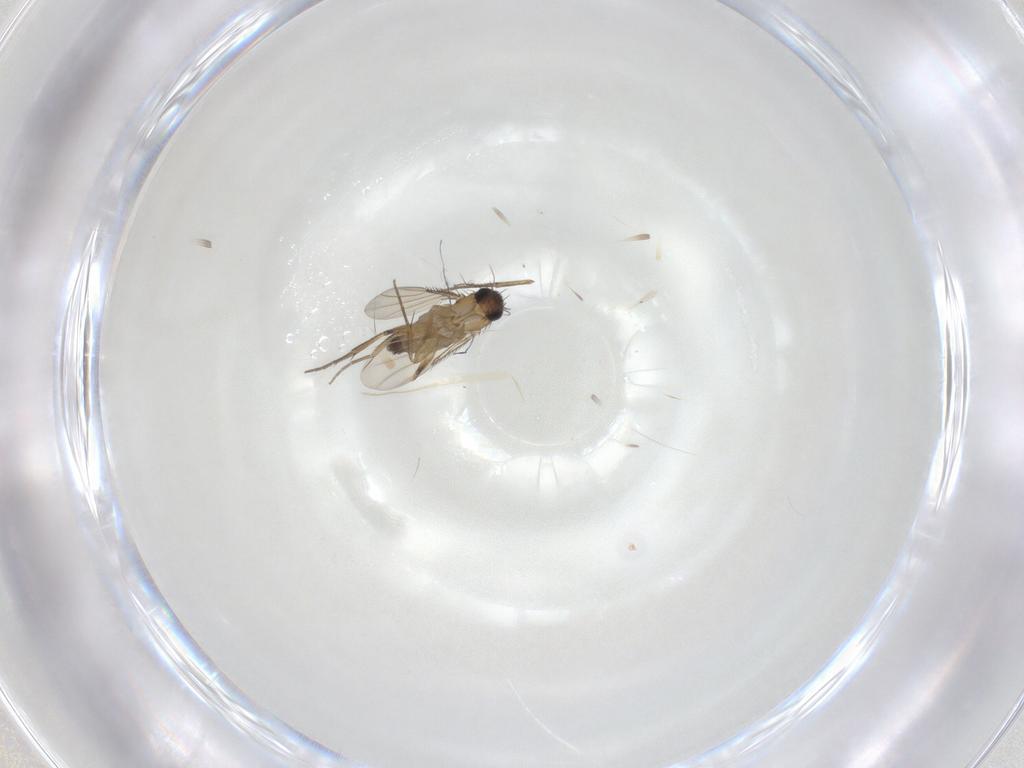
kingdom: Animalia
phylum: Arthropoda
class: Insecta
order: Diptera
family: Phoridae
